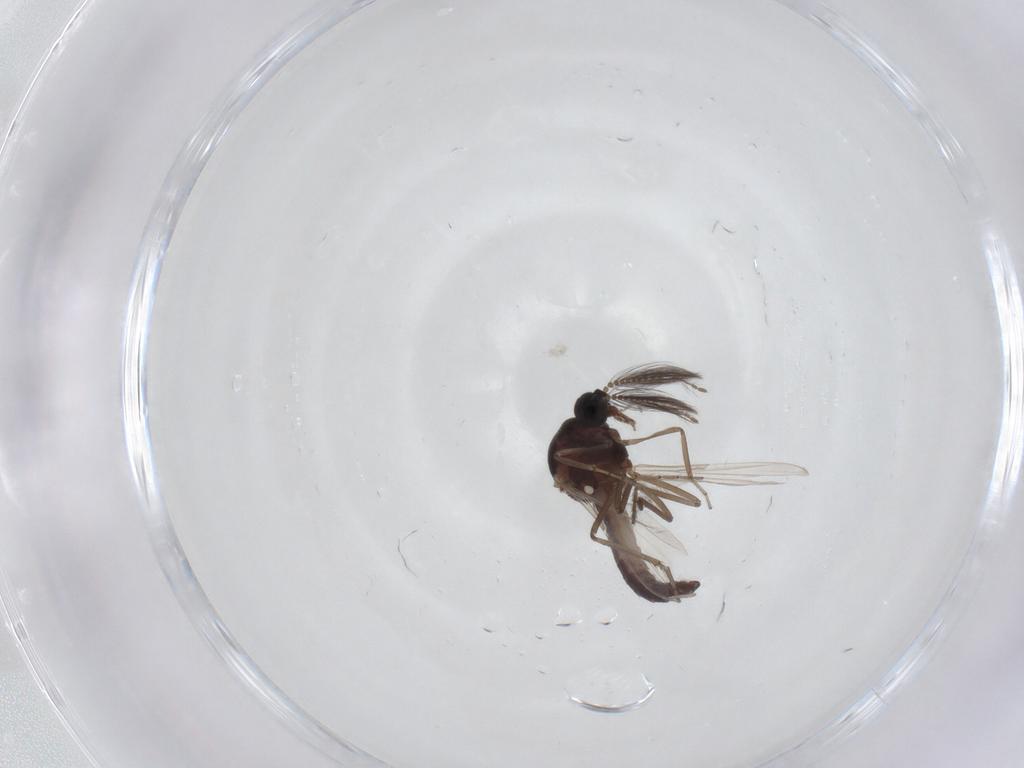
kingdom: Animalia
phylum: Arthropoda
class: Insecta
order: Diptera
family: Ceratopogonidae
